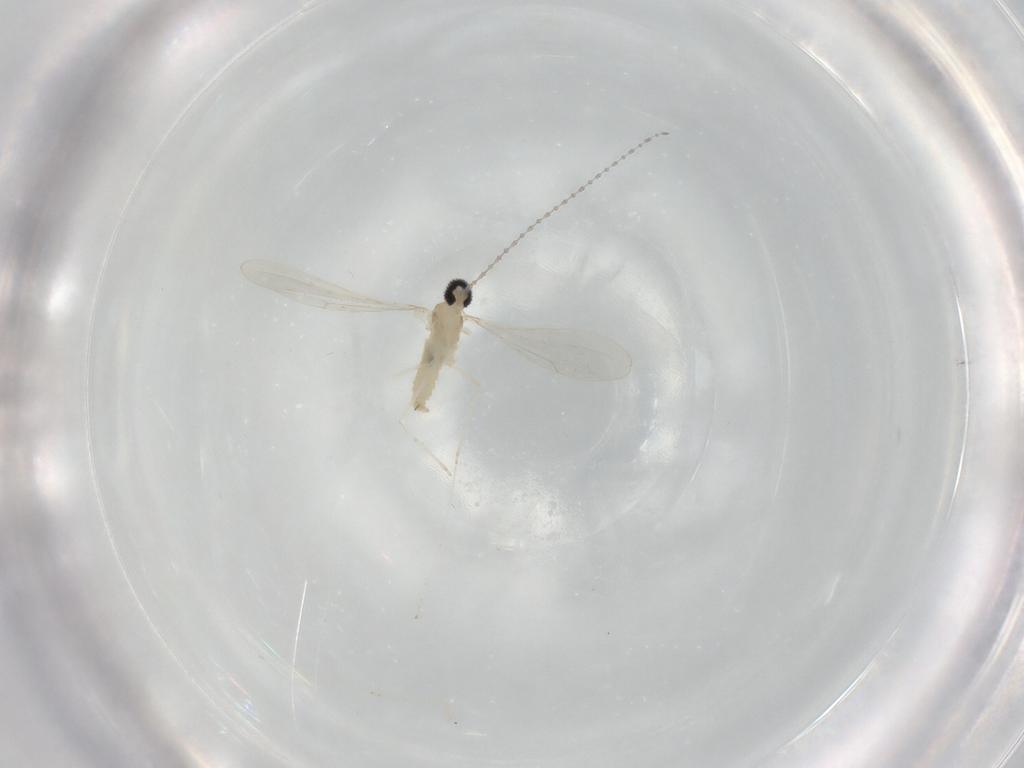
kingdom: Animalia
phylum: Arthropoda
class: Insecta
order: Diptera
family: Cecidomyiidae
